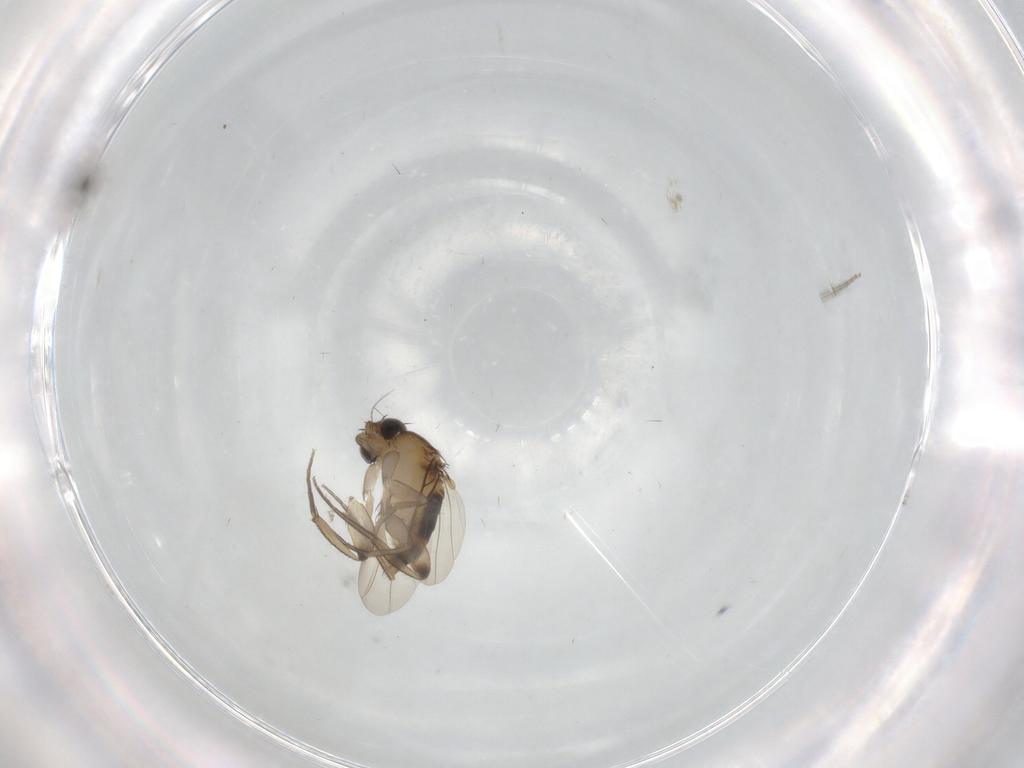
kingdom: Animalia
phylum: Arthropoda
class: Insecta
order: Diptera
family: Phoridae
